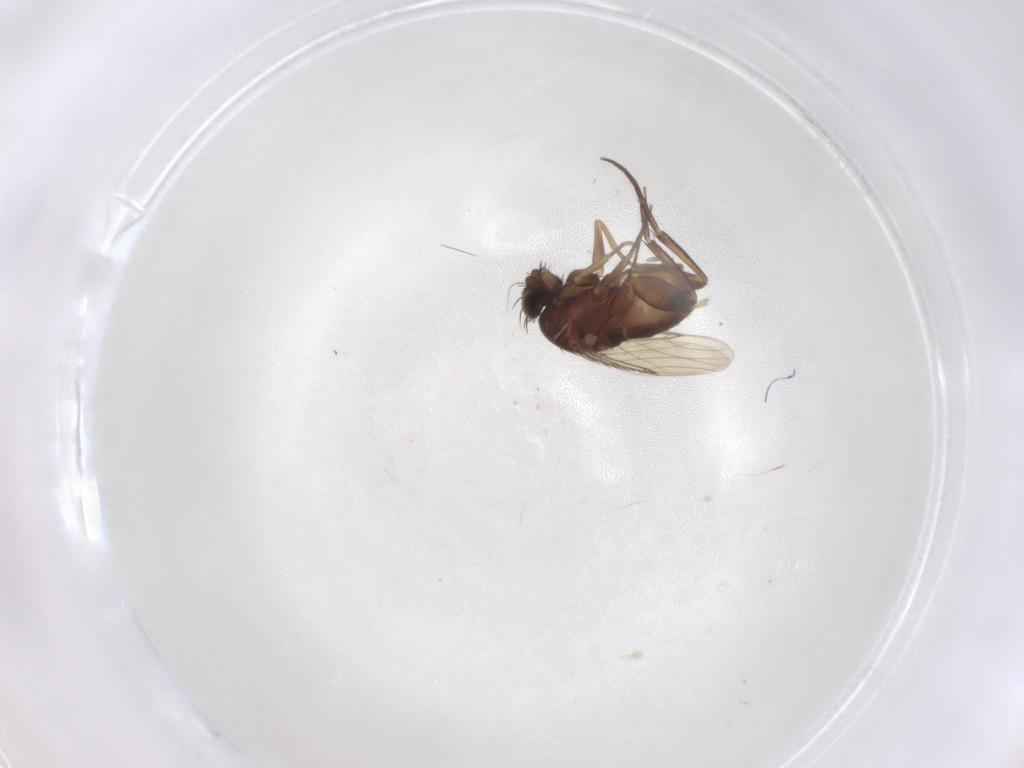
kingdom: Animalia
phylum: Arthropoda
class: Insecta
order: Diptera
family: Phoridae
